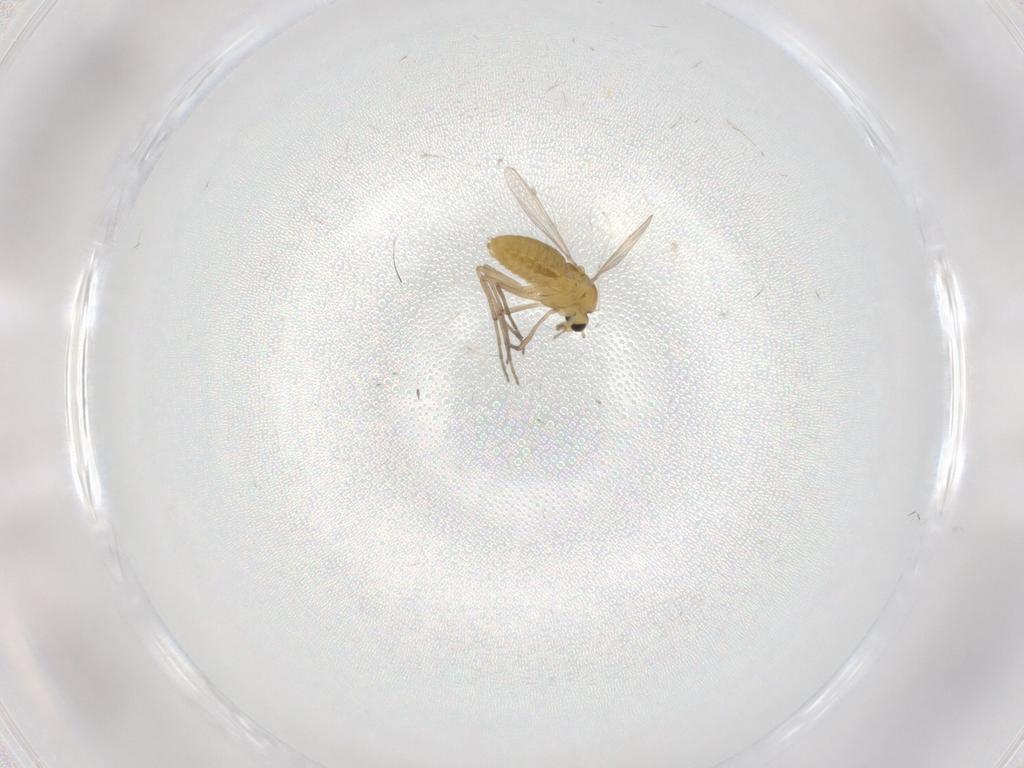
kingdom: Animalia
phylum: Arthropoda
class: Insecta
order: Diptera
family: Chironomidae
